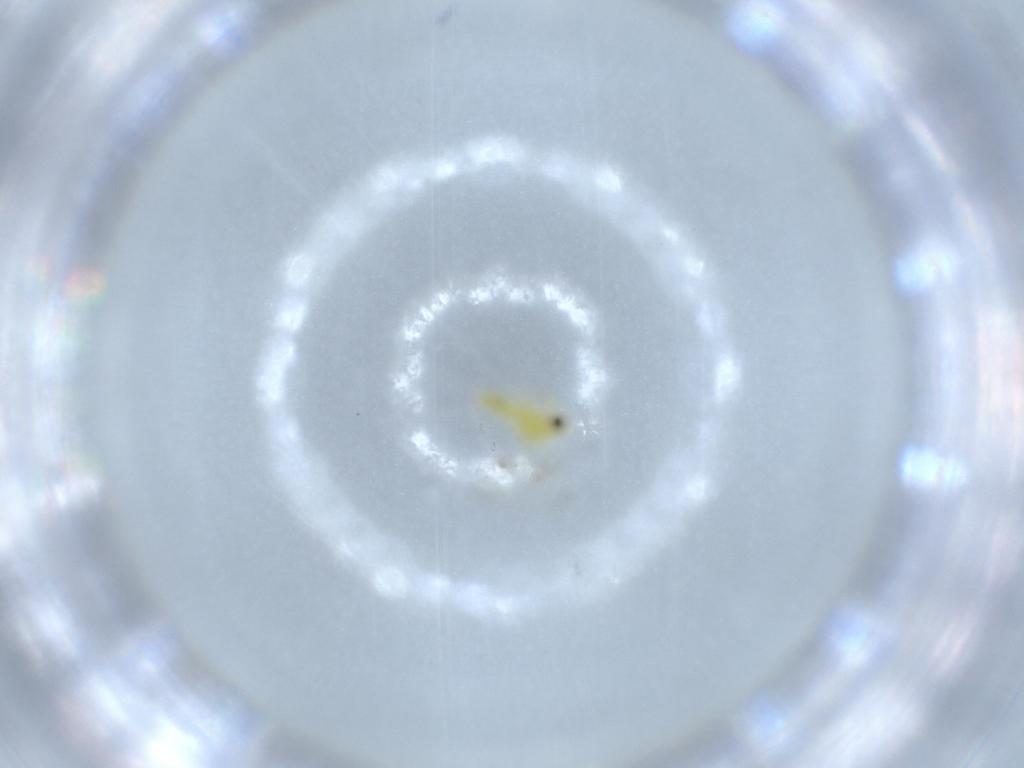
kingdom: Animalia
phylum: Arthropoda
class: Insecta
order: Hemiptera
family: Aleyrodidae
